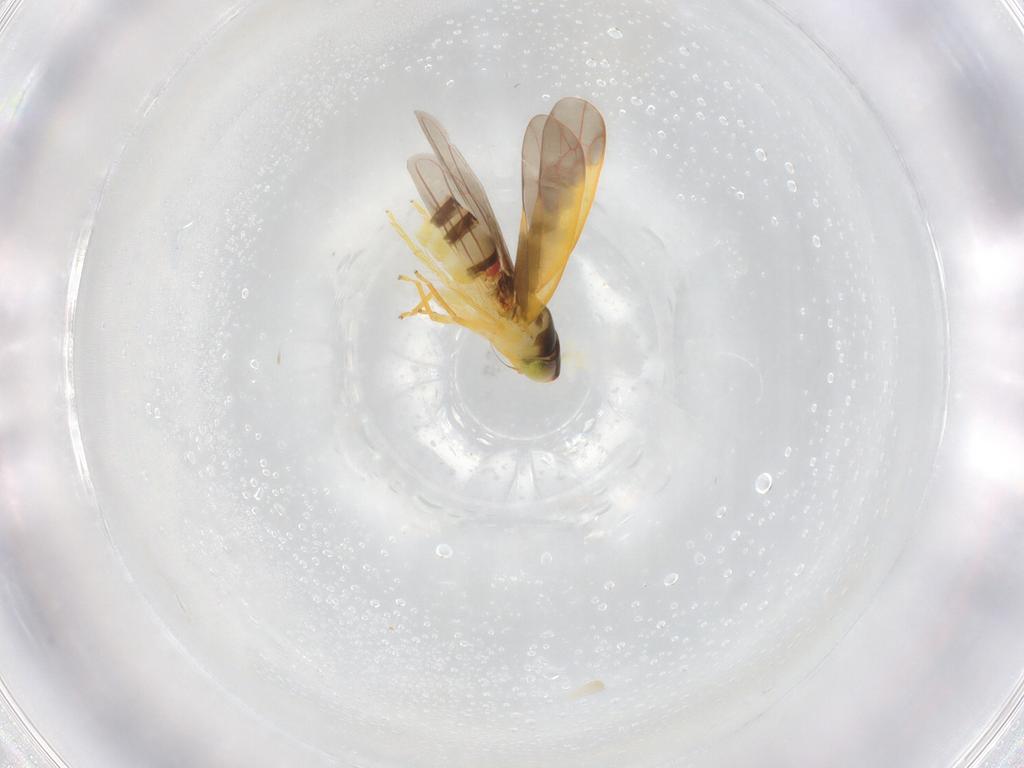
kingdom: Animalia
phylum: Arthropoda
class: Insecta
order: Hemiptera
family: Cicadellidae
